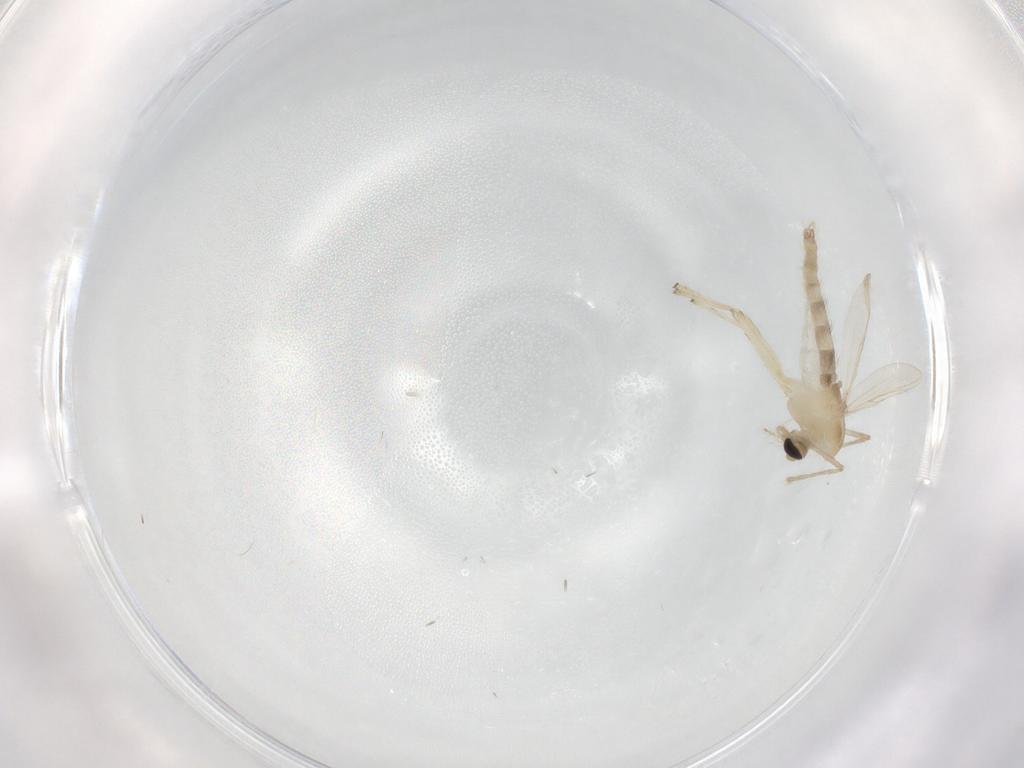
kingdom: Animalia
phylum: Arthropoda
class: Insecta
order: Diptera
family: Chironomidae
